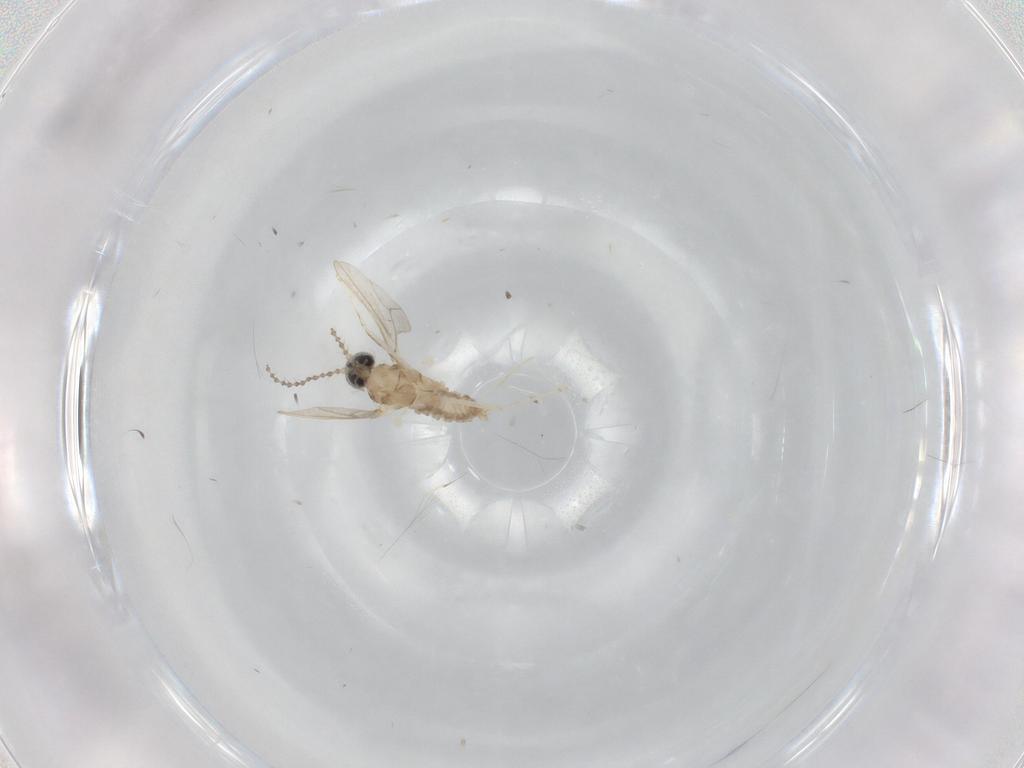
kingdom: Animalia
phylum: Arthropoda
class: Insecta
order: Diptera
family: Cecidomyiidae
